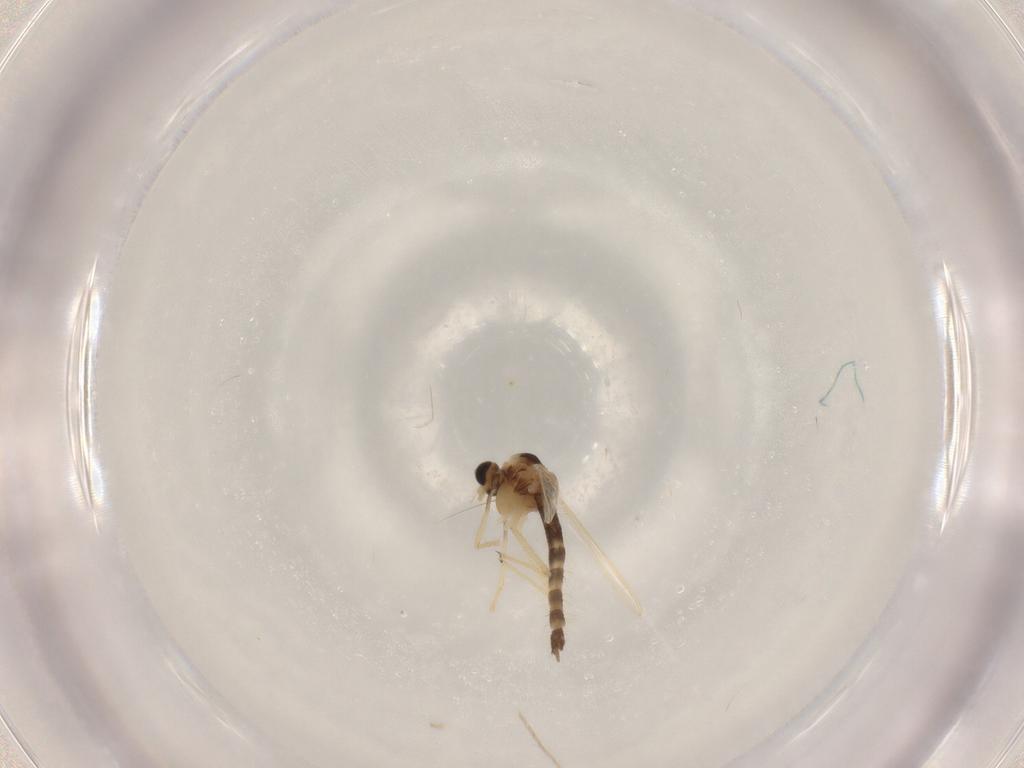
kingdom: Animalia
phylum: Arthropoda
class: Insecta
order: Diptera
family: Chironomidae
